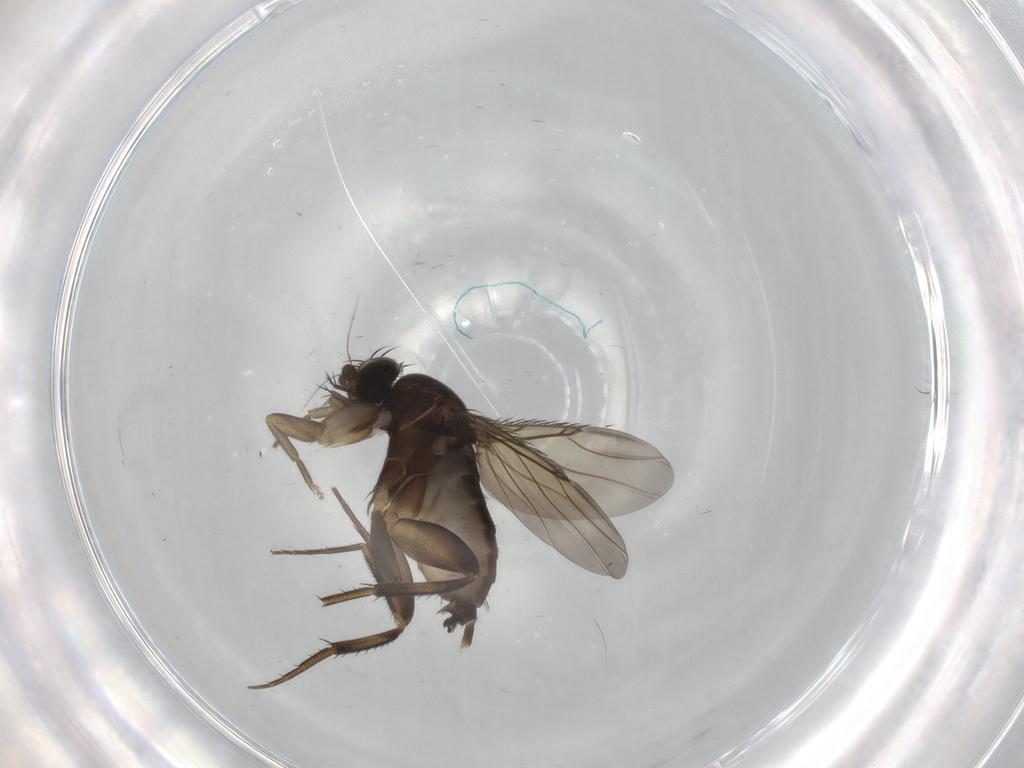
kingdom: Animalia
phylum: Arthropoda
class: Insecta
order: Diptera
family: Phoridae
